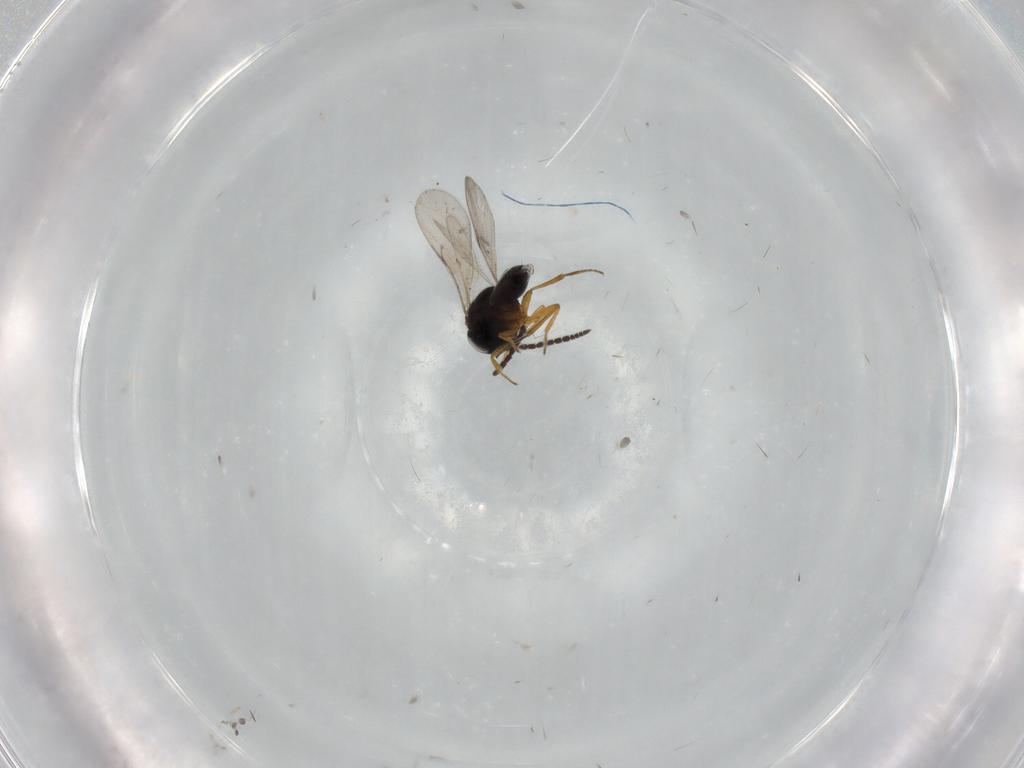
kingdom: Animalia
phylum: Arthropoda
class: Insecta
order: Hymenoptera
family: Scelionidae
